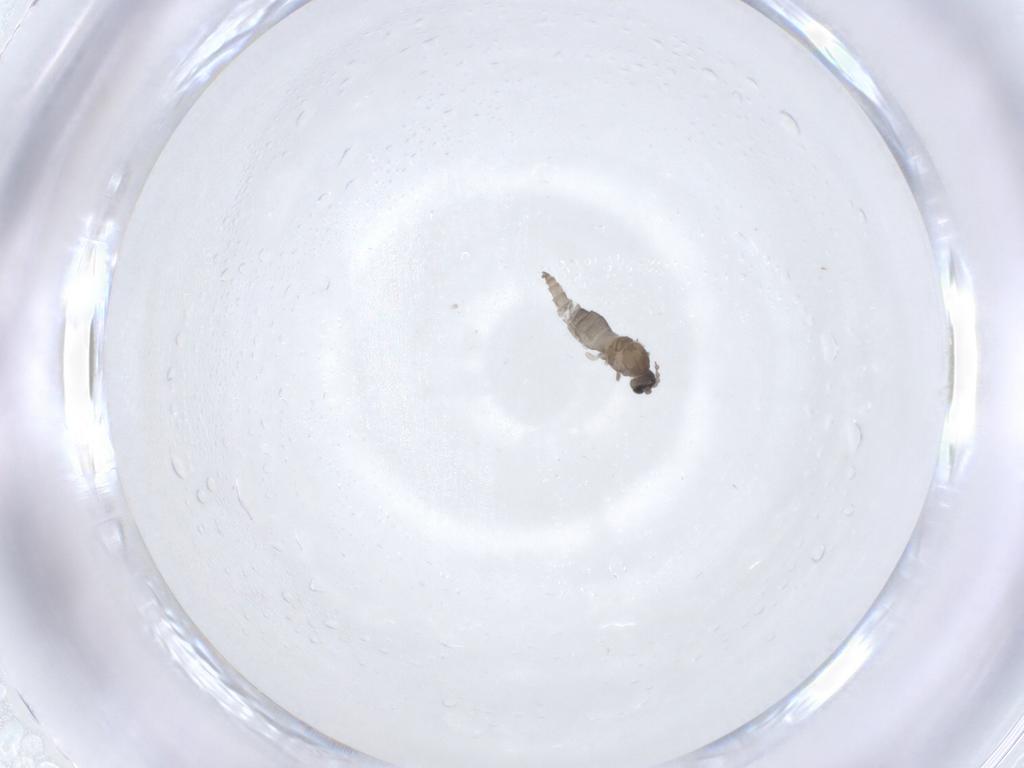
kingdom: Animalia
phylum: Arthropoda
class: Insecta
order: Diptera
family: Cecidomyiidae
